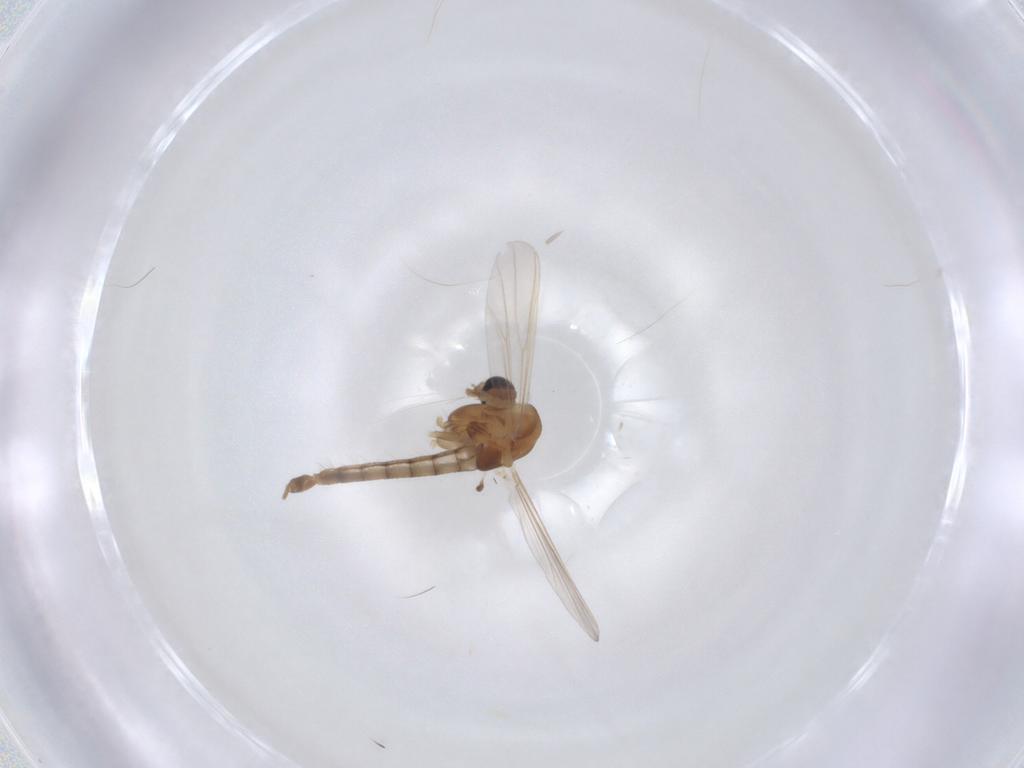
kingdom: Animalia
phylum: Arthropoda
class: Insecta
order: Diptera
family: Chironomidae
